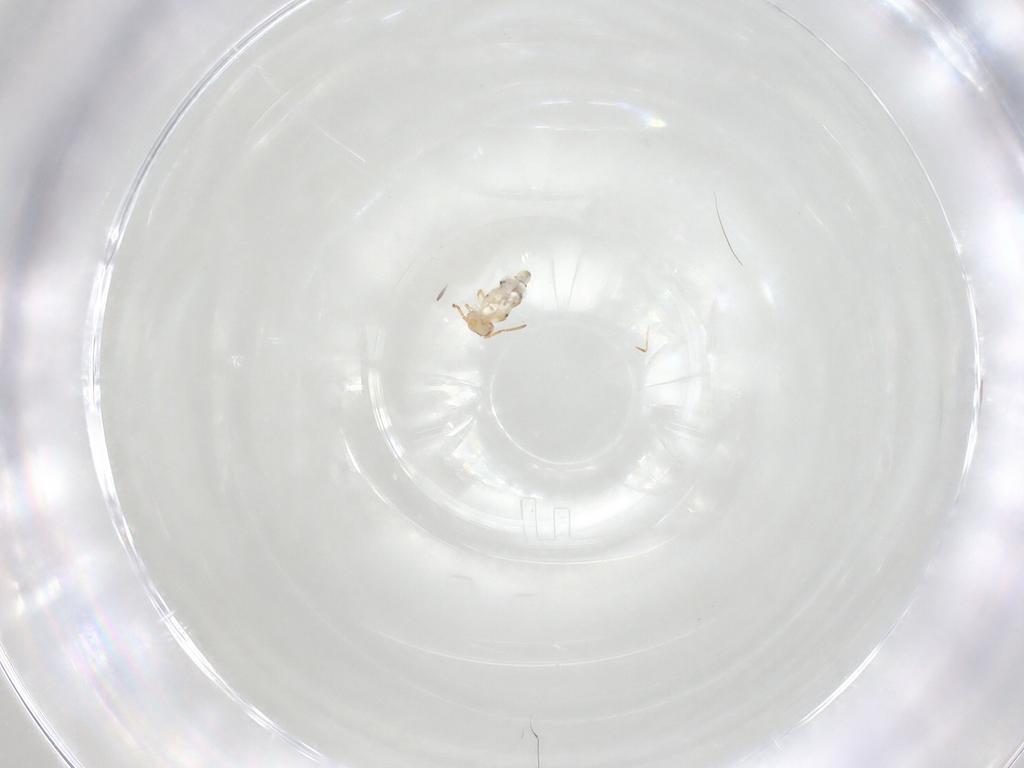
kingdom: Animalia
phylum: Arthropoda
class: Collembola
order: Symphypleona
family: Bourletiellidae
